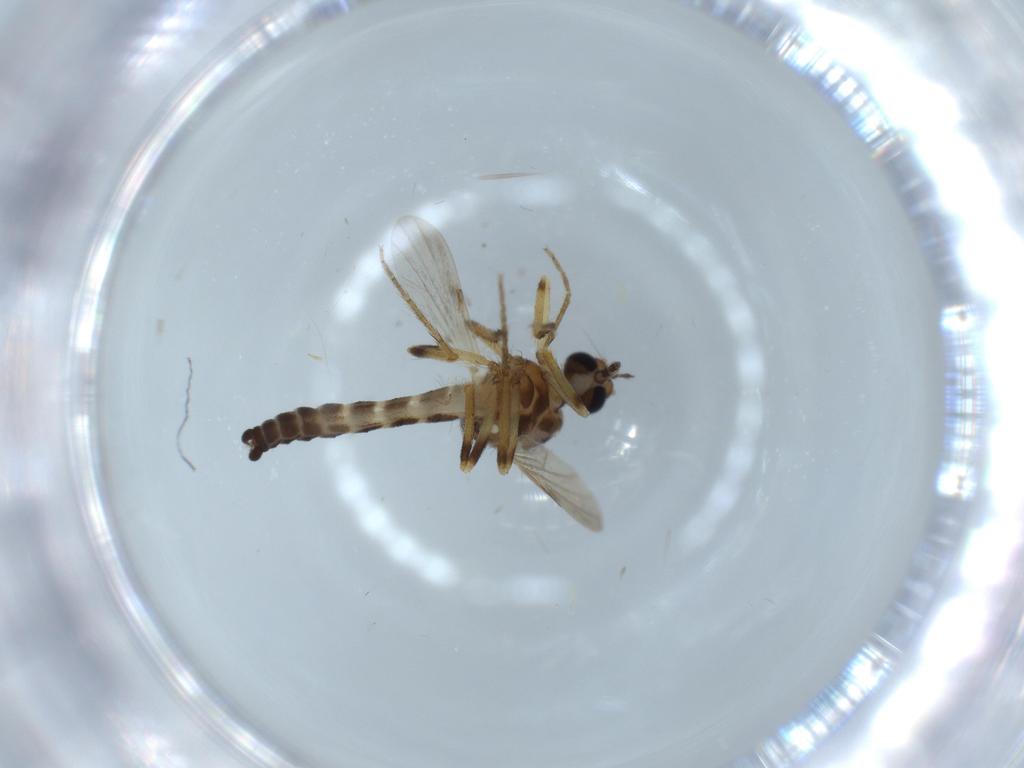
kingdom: Animalia
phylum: Arthropoda
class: Insecta
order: Diptera
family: Ceratopogonidae
